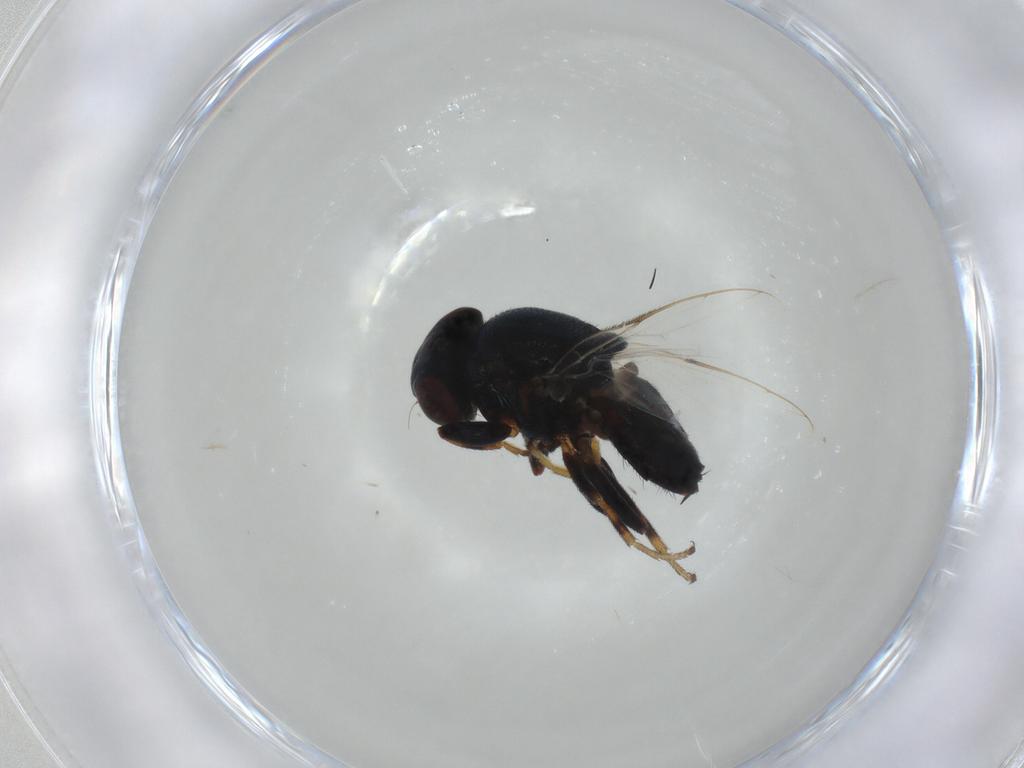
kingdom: Animalia
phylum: Arthropoda
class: Insecta
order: Diptera
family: Chloropidae
